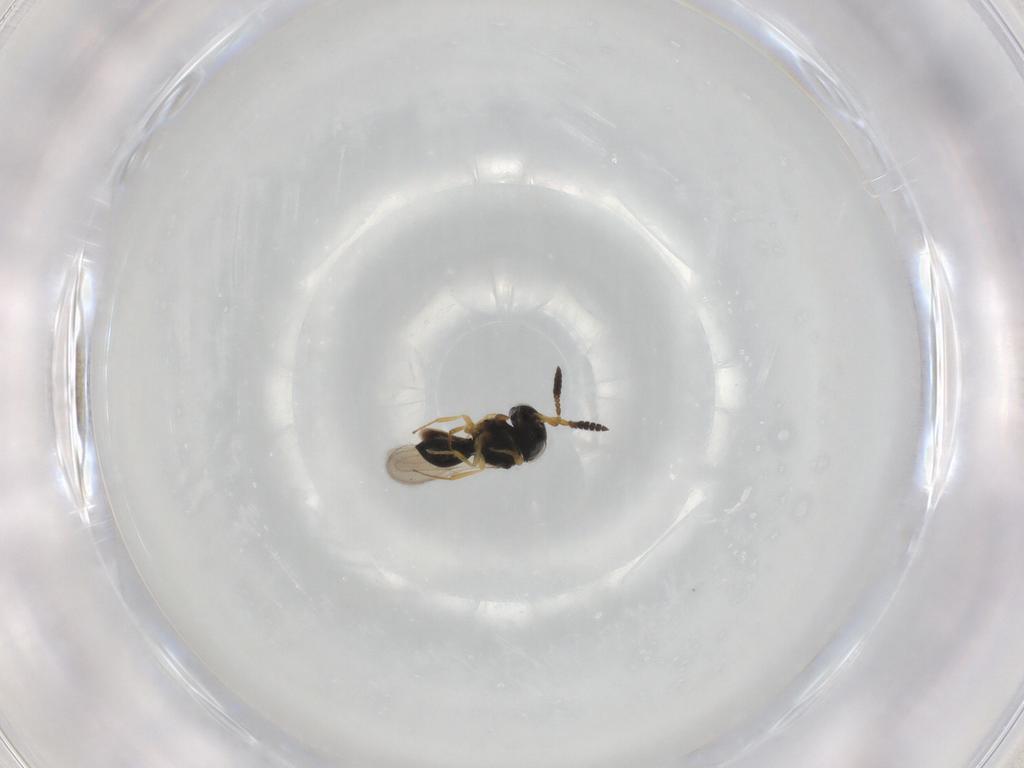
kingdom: Animalia
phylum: Arthropoda
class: Insecta
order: Hymenoptera
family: Scelionidae
